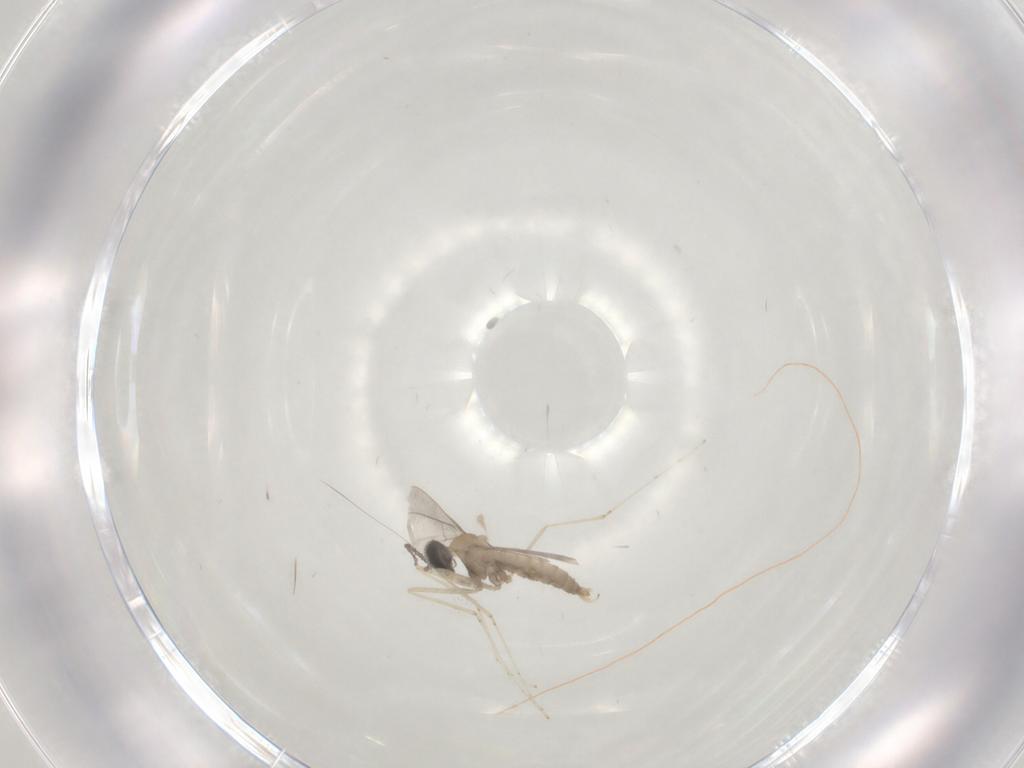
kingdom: Animalia
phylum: Arthropoda
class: Insecta
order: Diptera
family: Cecidomyiidae
